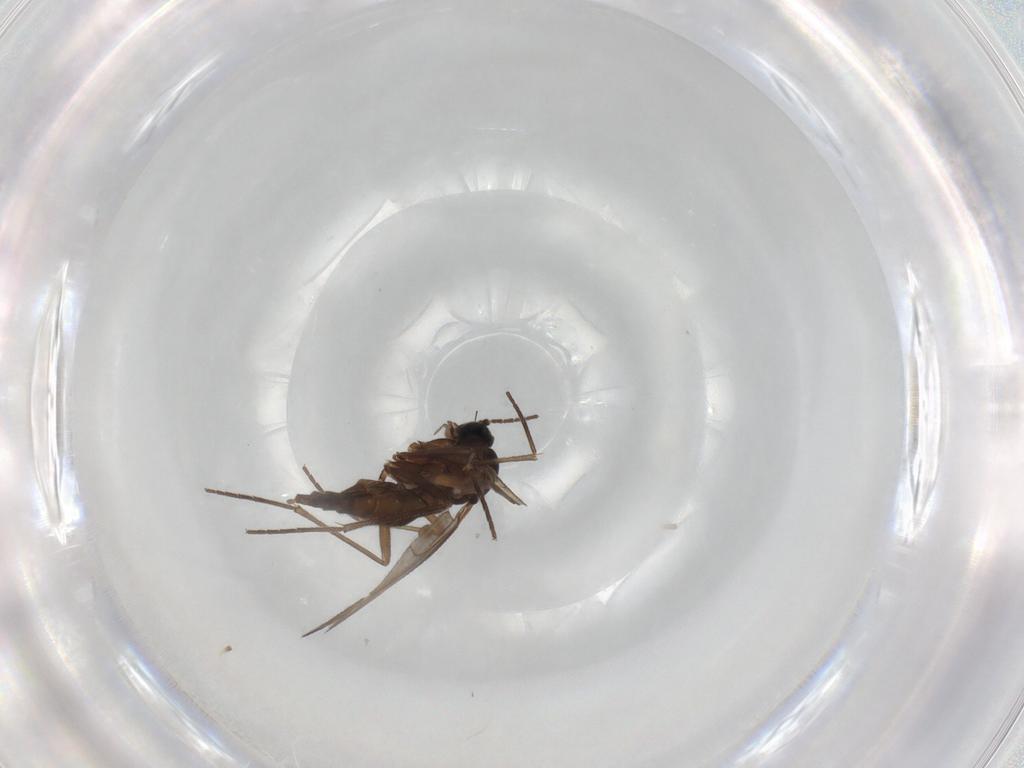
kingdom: Animalia
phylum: Arthropoda
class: Insecta
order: Diptera
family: Sciaridae
